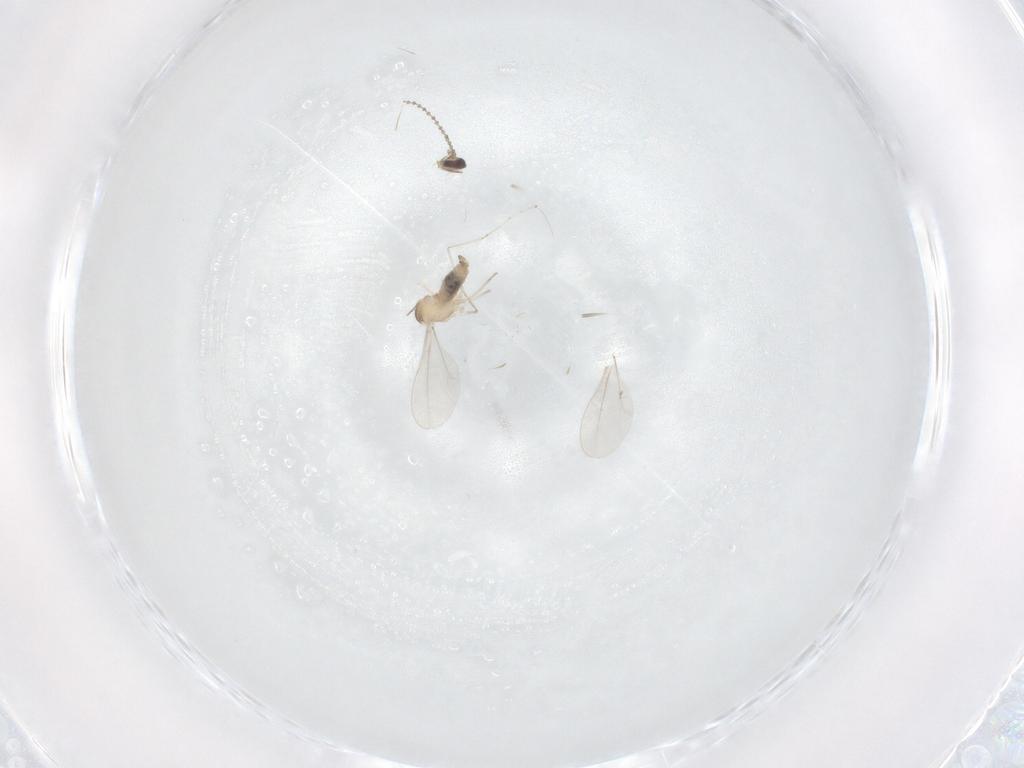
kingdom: Animalia
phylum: Arthropoda
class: Insecta
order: Diptera
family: Cecidomyiidae
